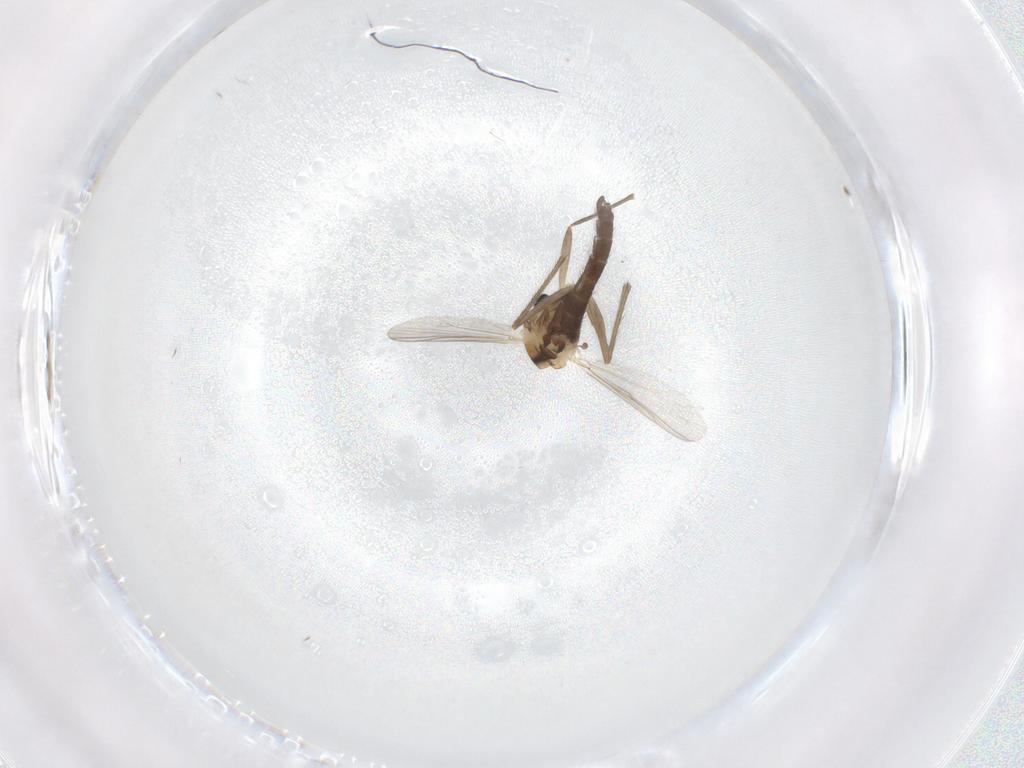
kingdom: Animalia
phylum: Arthropoda
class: Insecta
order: Diptera
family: Chironomidae
